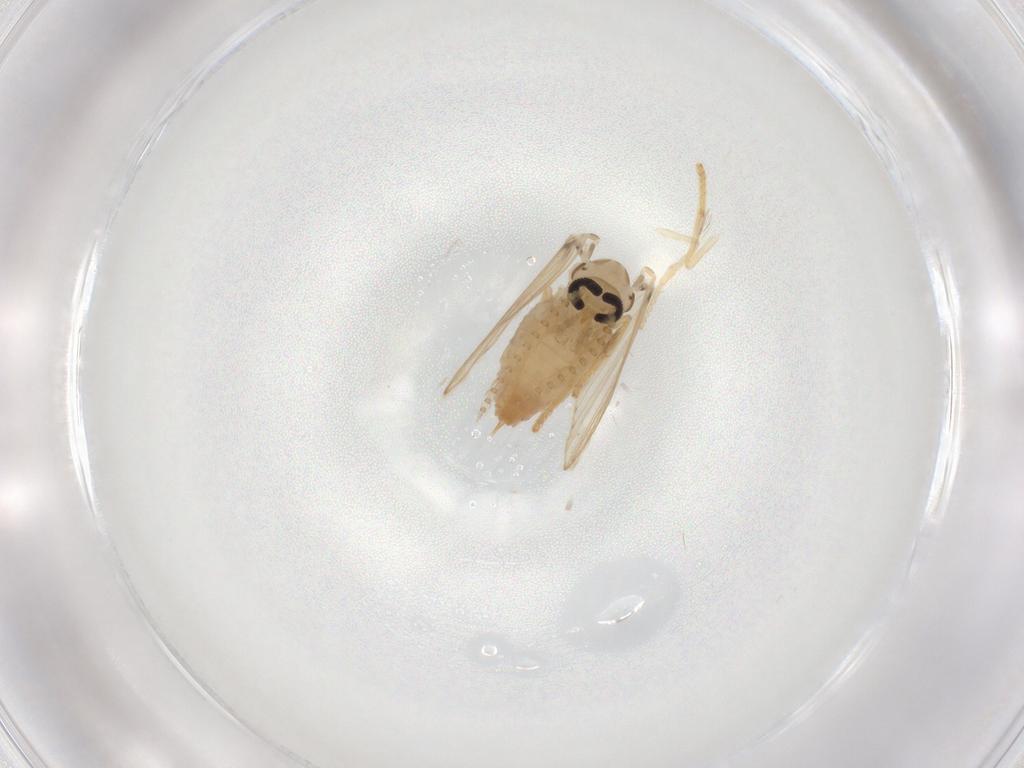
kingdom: Animalia
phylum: Arthropoda
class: Insecta
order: Diptera
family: Psychodidae
